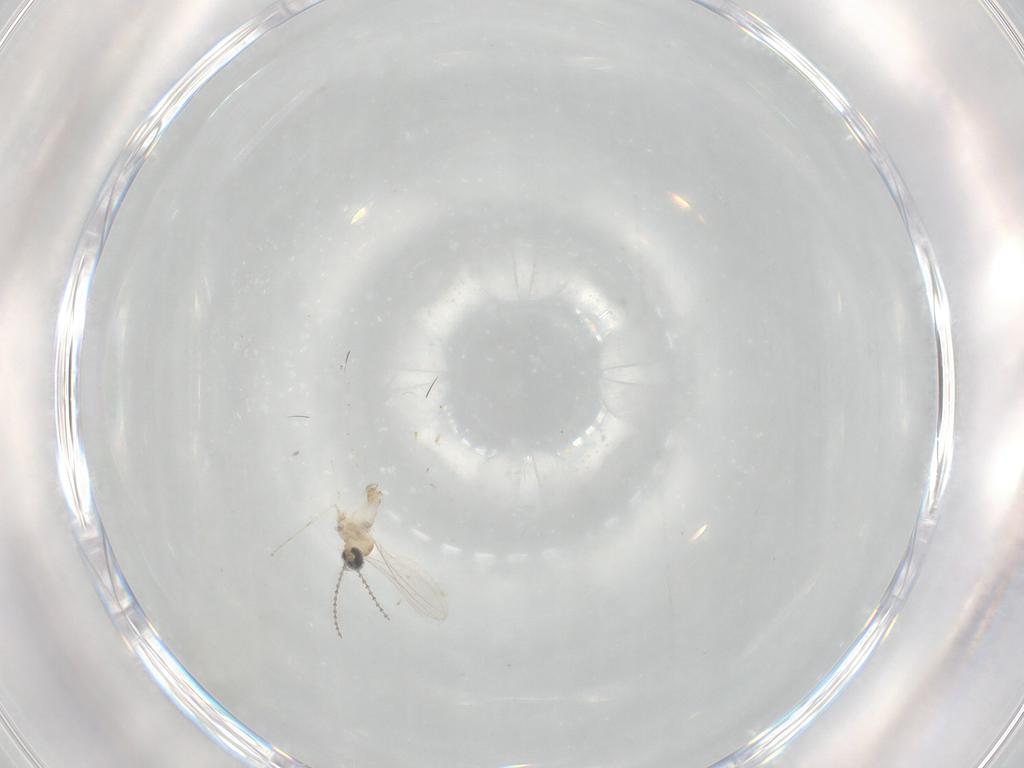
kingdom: Animalia
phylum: Arthropoda
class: Insecta
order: Diptera
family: Cecidomyiidae
